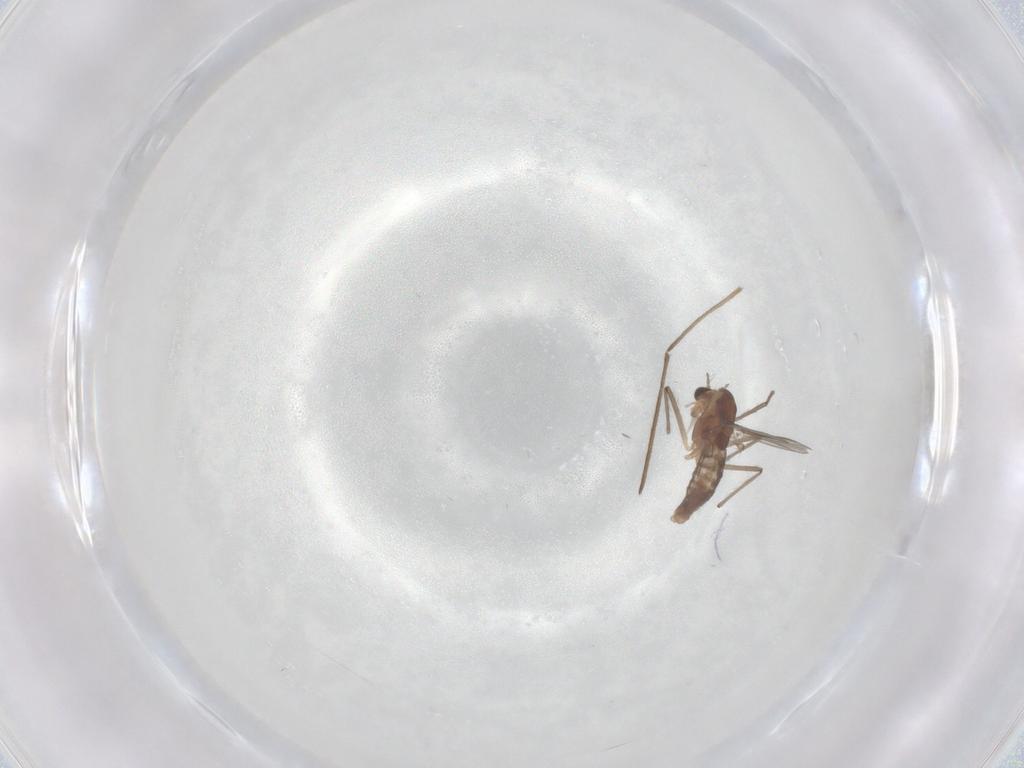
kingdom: Animalia
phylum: Arthropoda
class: Insecta
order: Diptera
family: Chironomidae
